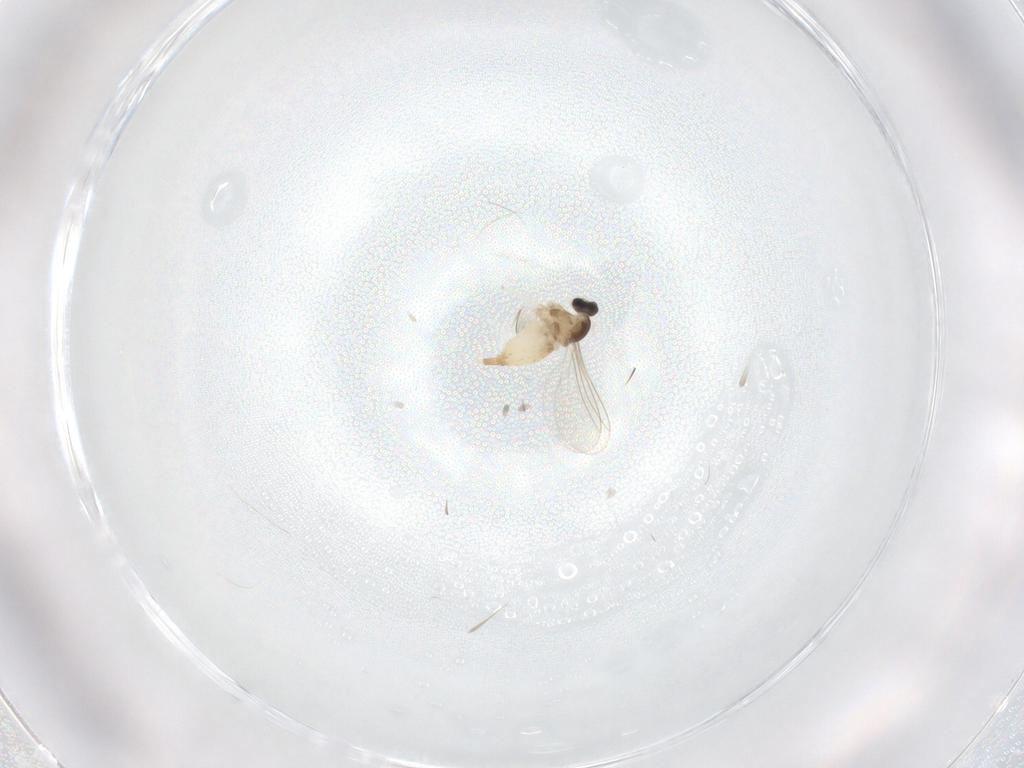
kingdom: Animalia
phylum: Arthropoda
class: Insecta
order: Diptera
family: Cecidomyiidae
